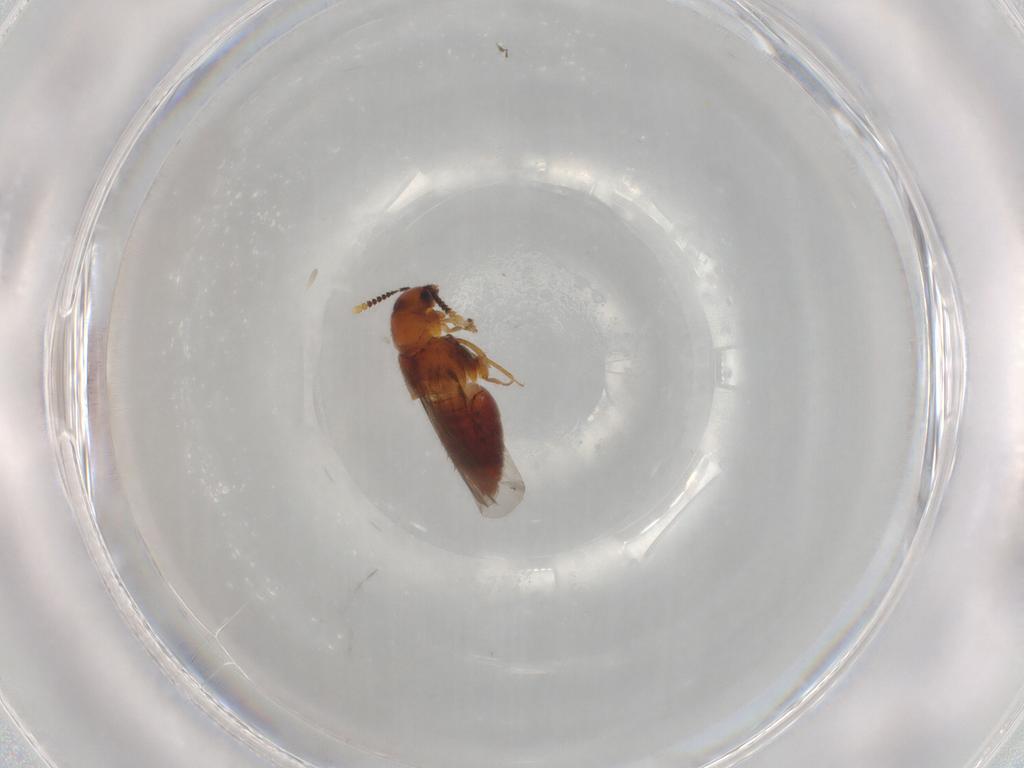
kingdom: Animalia
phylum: Arthropoda
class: Insecta
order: Coleoptera
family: Staphylinidae
